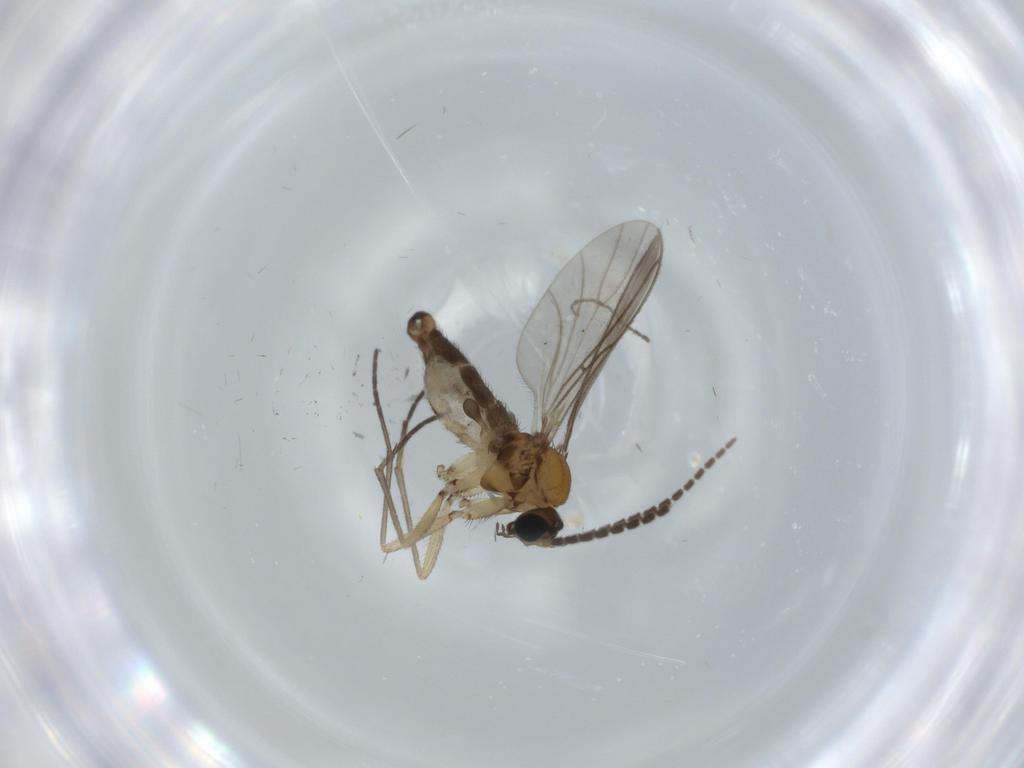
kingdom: Animalia
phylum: Arthropoda
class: Insecta
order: Diptera
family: Sciaridae
